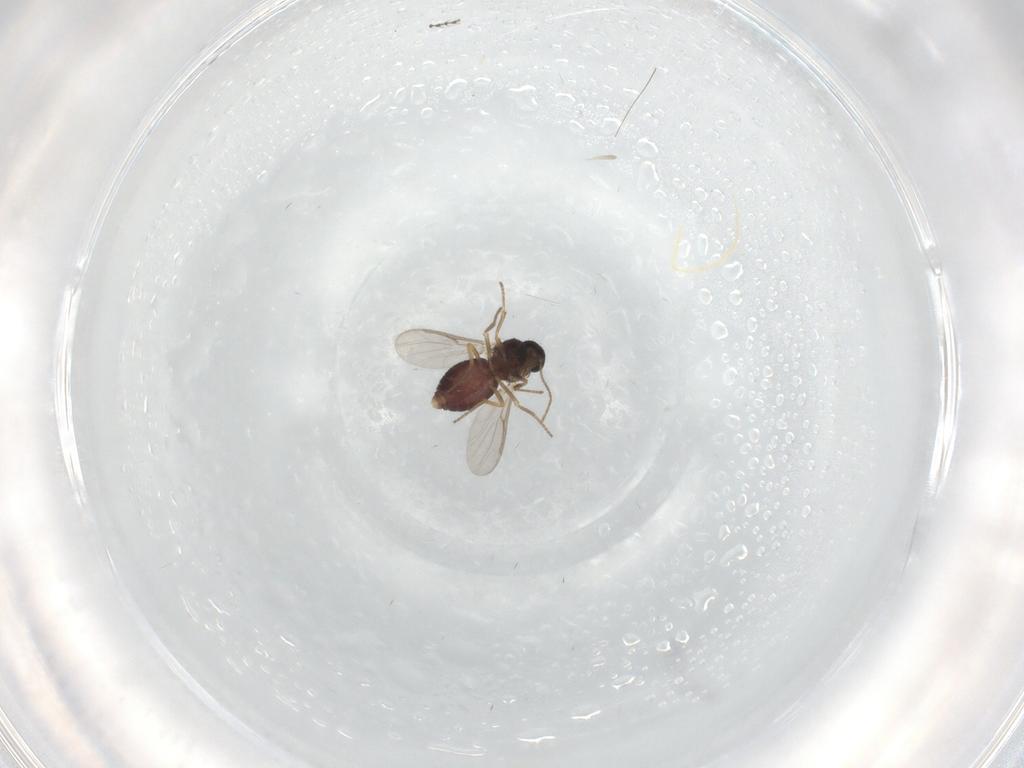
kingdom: Animalia
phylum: Arthropoda
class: Insecta
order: Diptera
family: Ceratopogonidae
